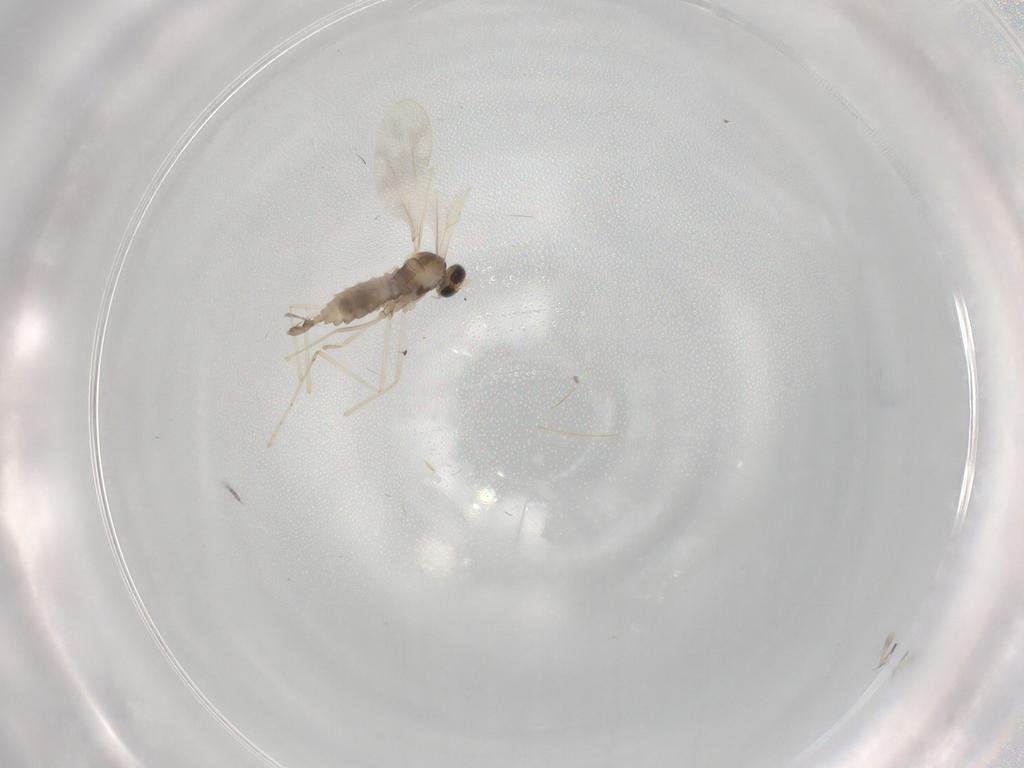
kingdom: Animalia
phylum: Arthropoda
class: Insecta
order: Diptera
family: Cecidomyiidae
